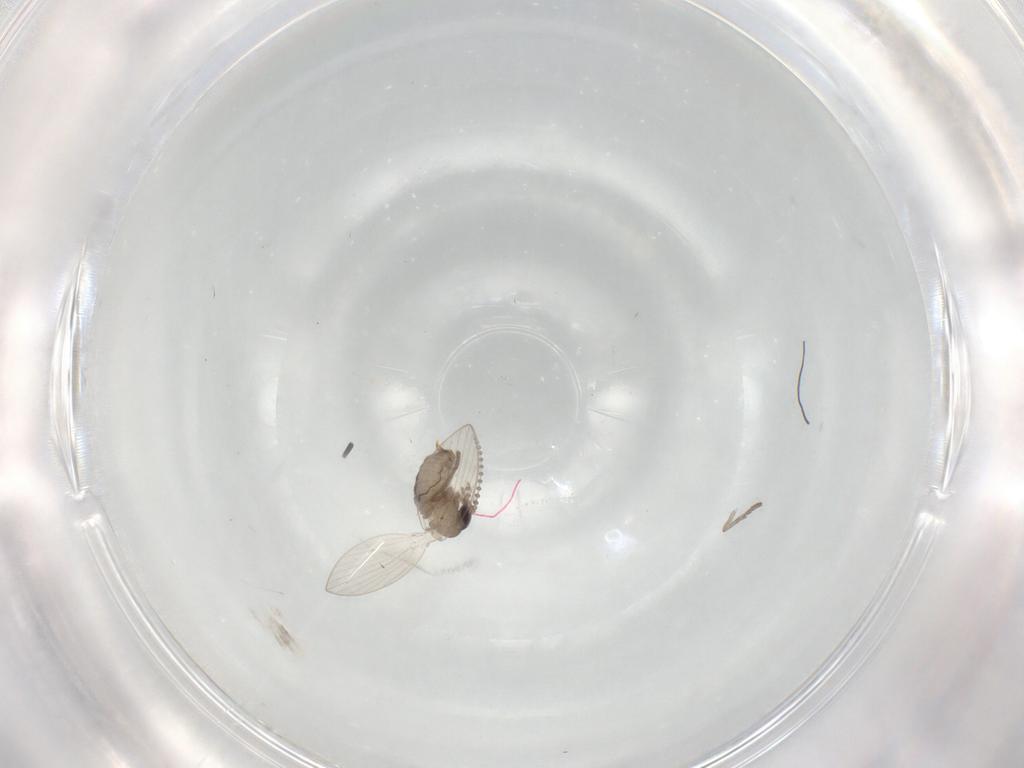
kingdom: Animalia
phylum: Arthropoda
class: Insecta
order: Diptera
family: Psychodidae
